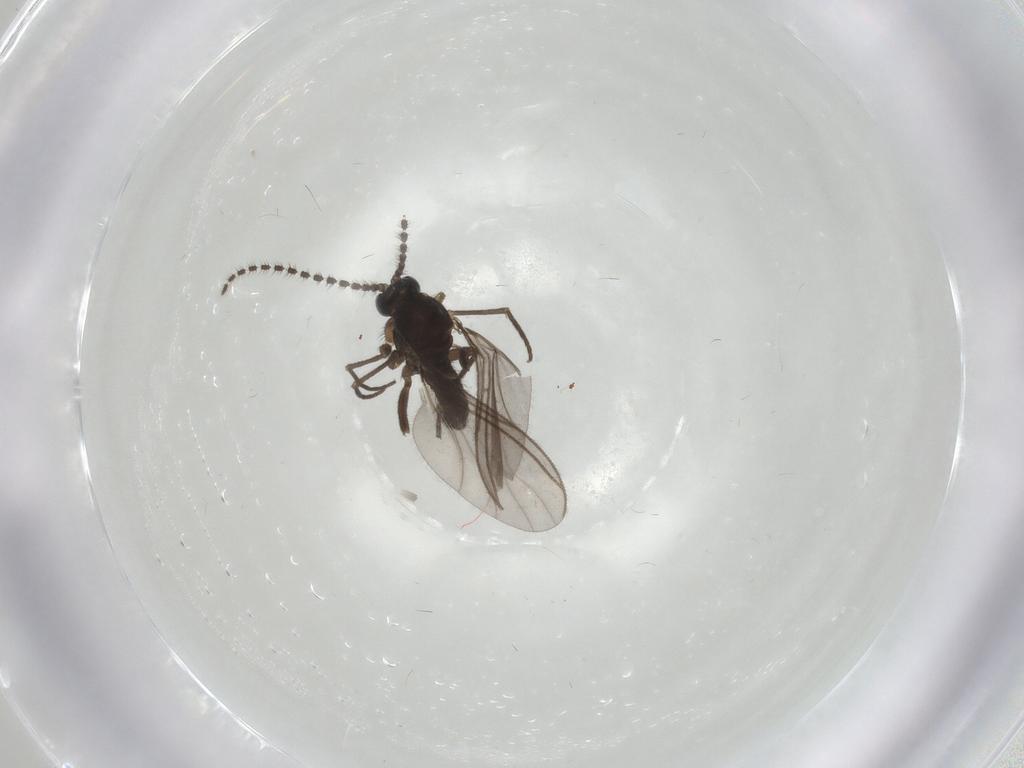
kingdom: Animalia
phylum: Arthropoda
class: Insecta
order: Diptera
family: Sciaridae
